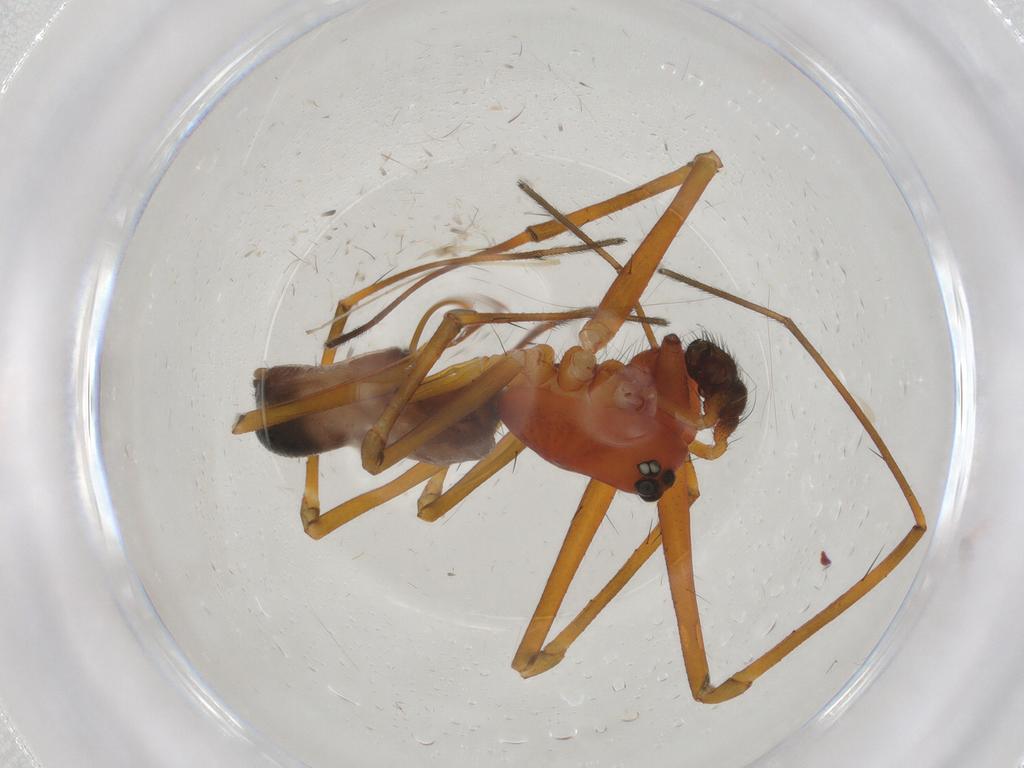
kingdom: Animalia
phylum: Arthropoda
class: Arachnida
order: Araneae
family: Linyphiidae
